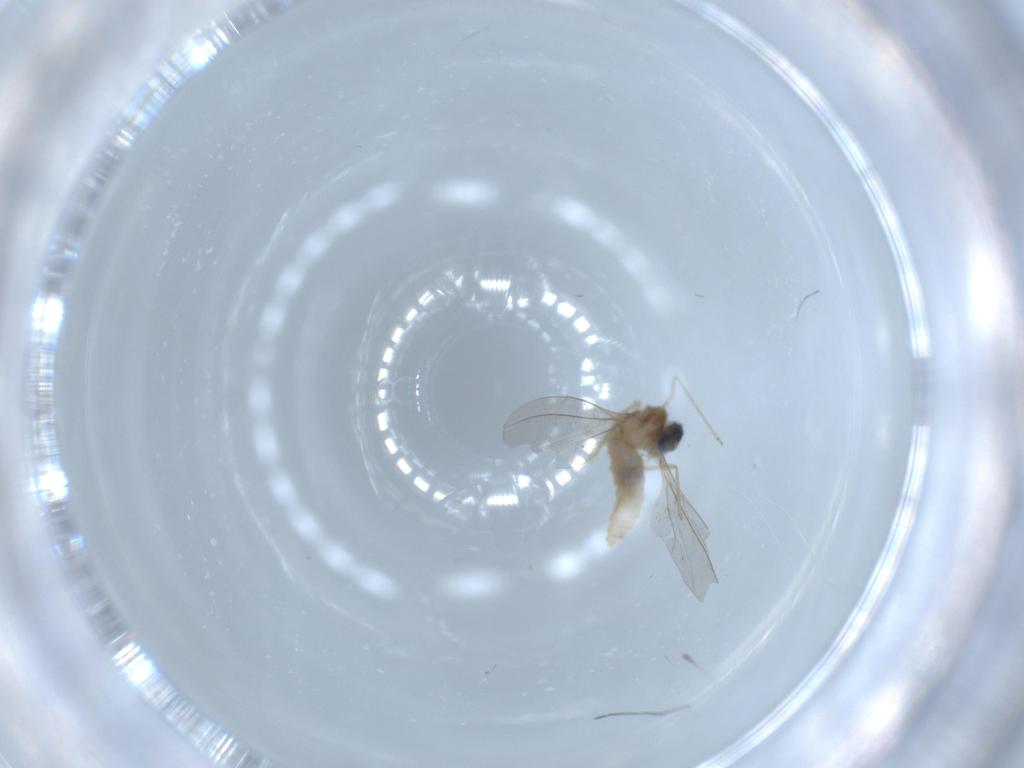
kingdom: Animalia
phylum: Arthropoda
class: Insecta
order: Diptera
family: Cecidomyiidae
